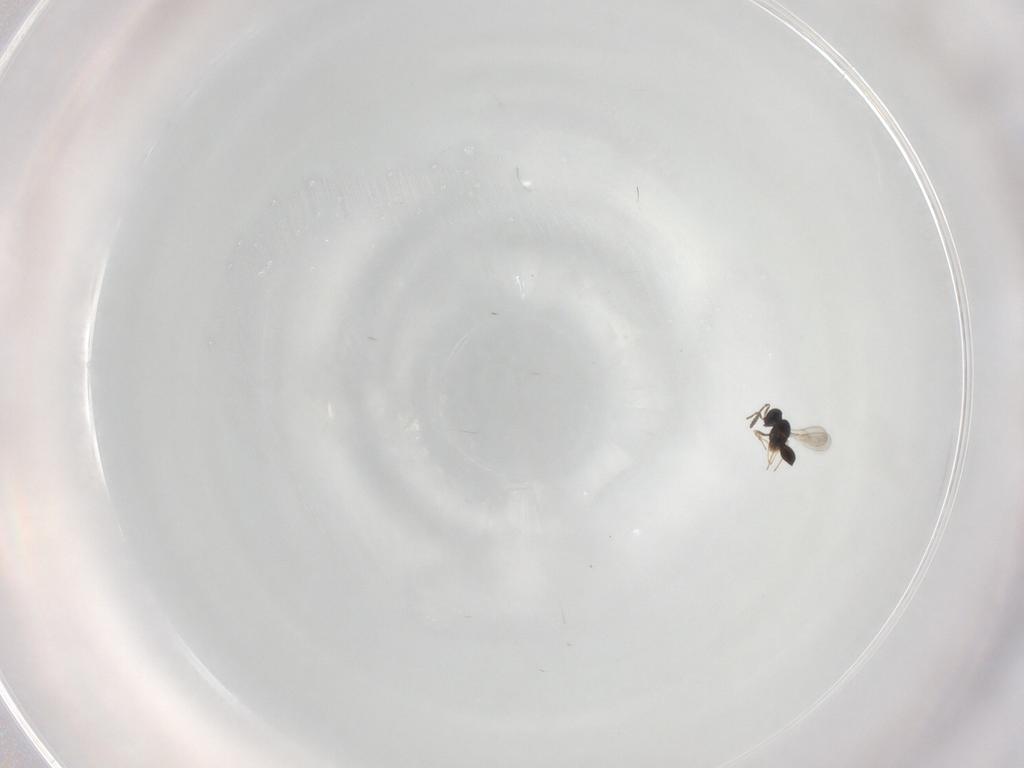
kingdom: Animalia
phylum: Arthropoda
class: Insecta
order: Hymenoptera
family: Scelionidae
